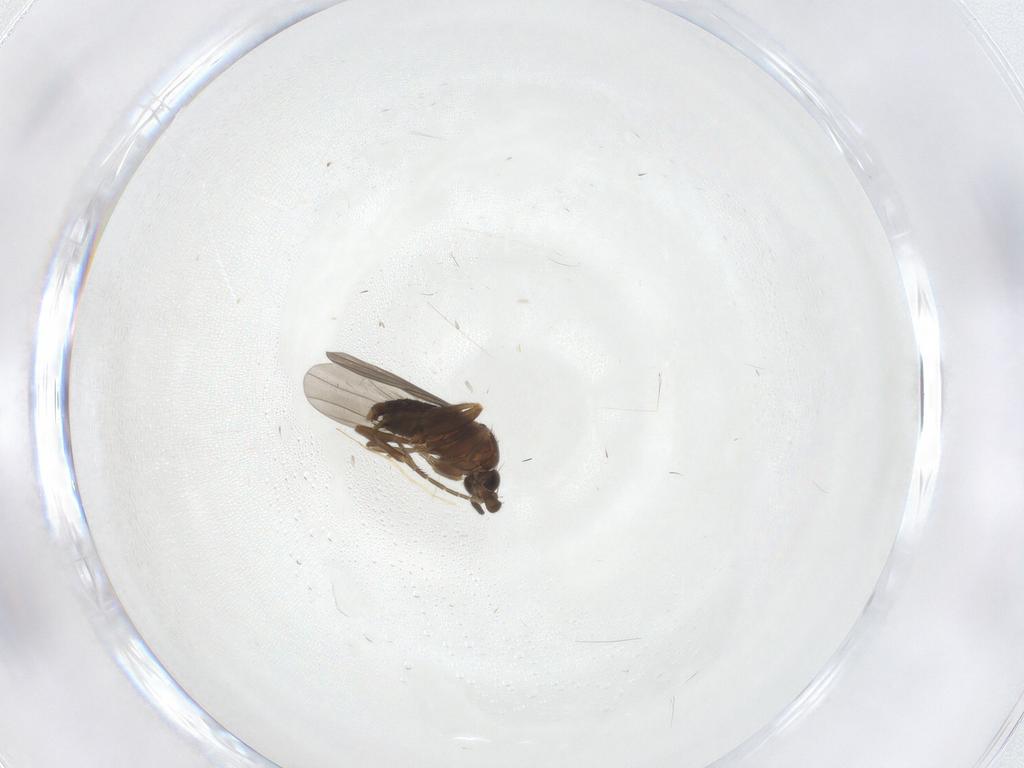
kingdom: Animalia
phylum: Arthropoda
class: Insecta
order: Diptera
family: Phoridae
